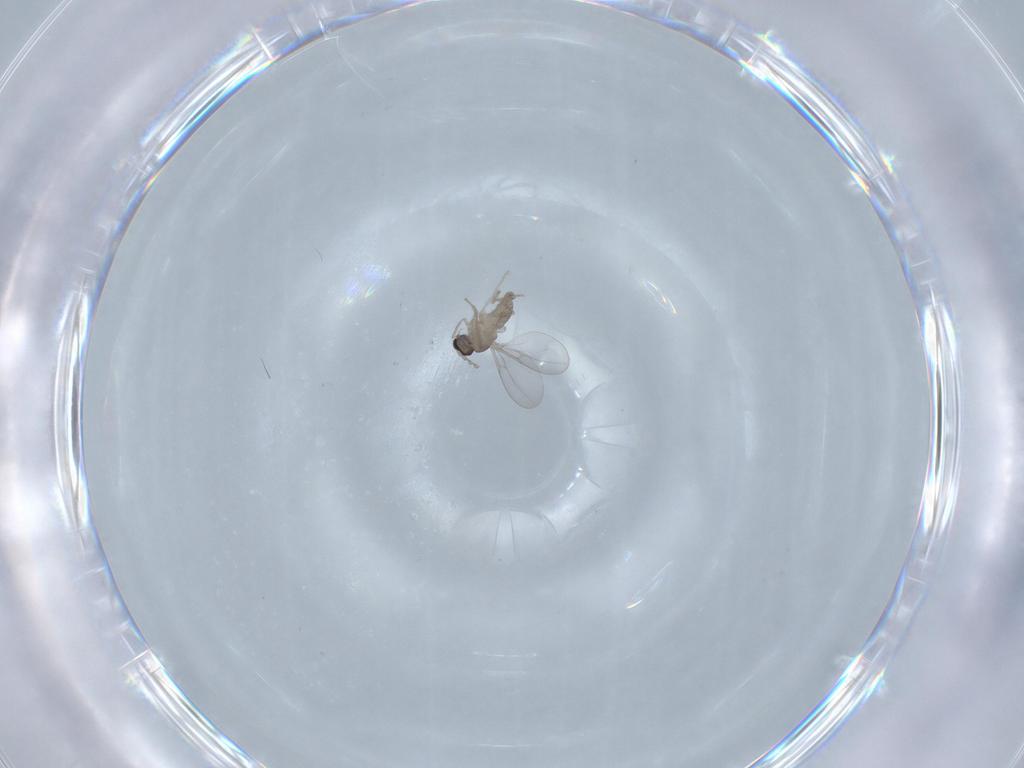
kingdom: Animalia
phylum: Arthropoda
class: Insecta
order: Diptera
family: Cecidomyiidae
